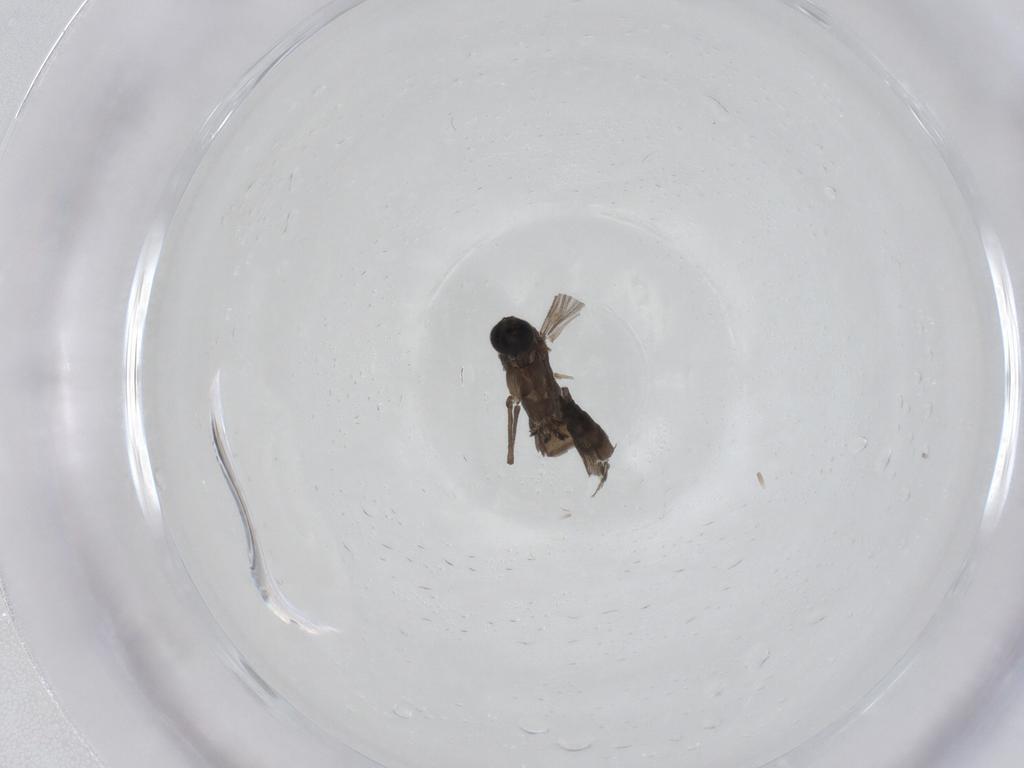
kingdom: Animalia
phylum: Arthropoda
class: Insecta
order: Diptera
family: Sciaridae
